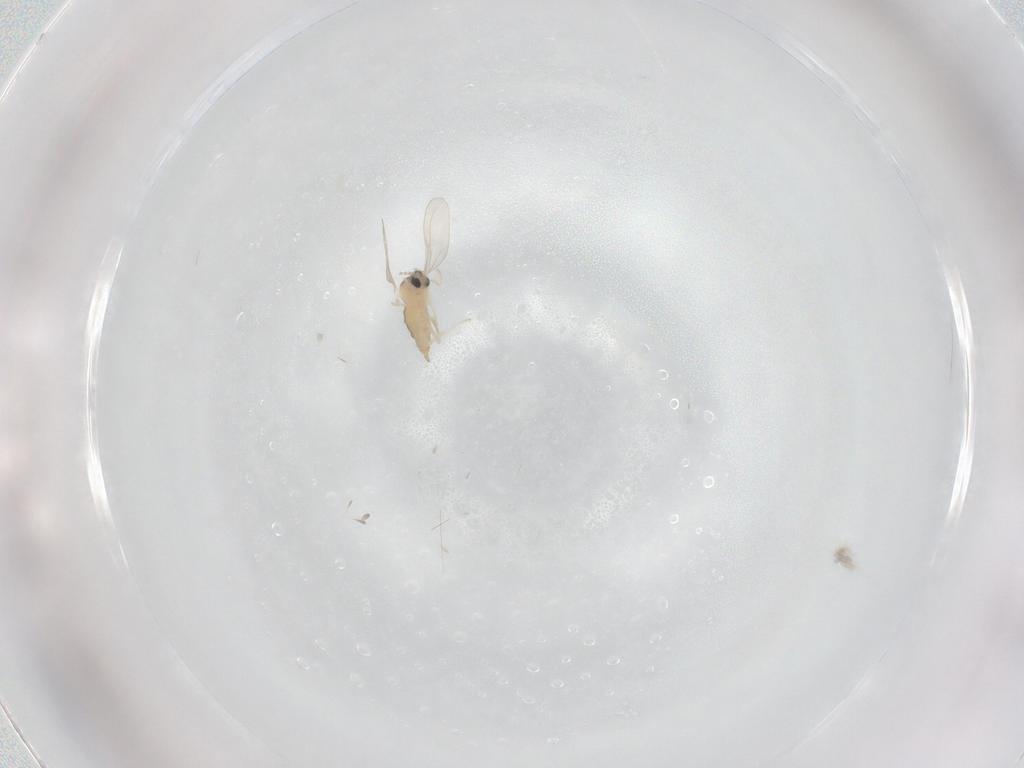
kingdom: Animalia
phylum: Arthropoda
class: Insecta
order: Diptera
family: Cecidomyiidae
